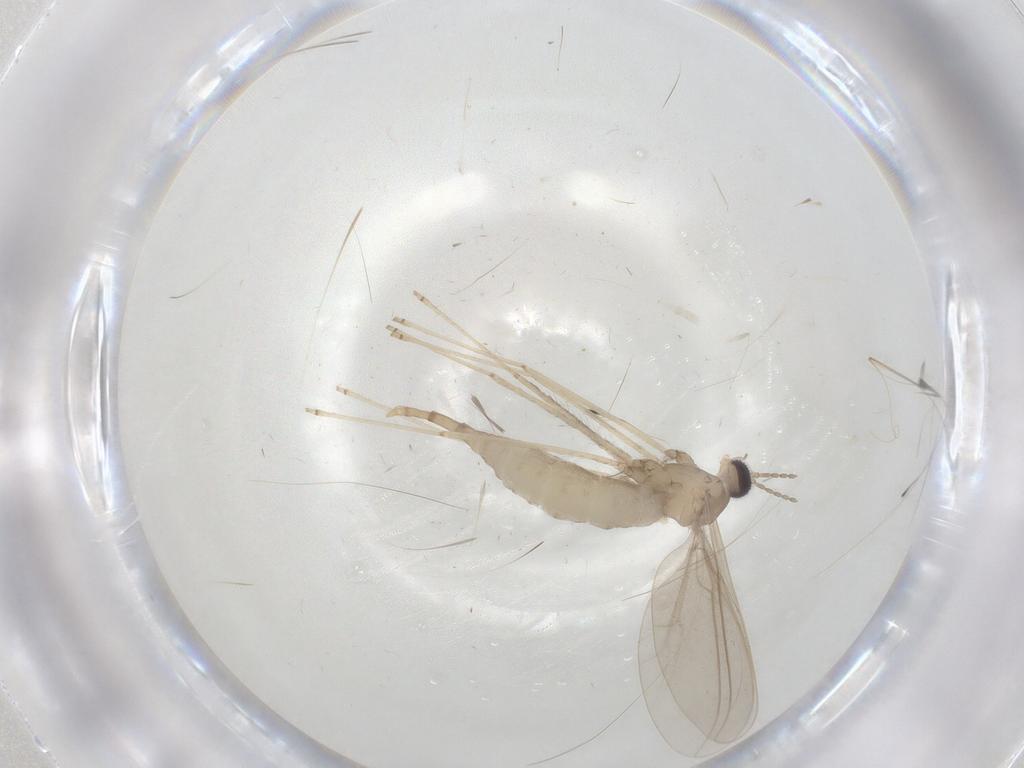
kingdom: Animalia
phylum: Arthropoda
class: Insecta
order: Diptera
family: Cecidomyiidae
